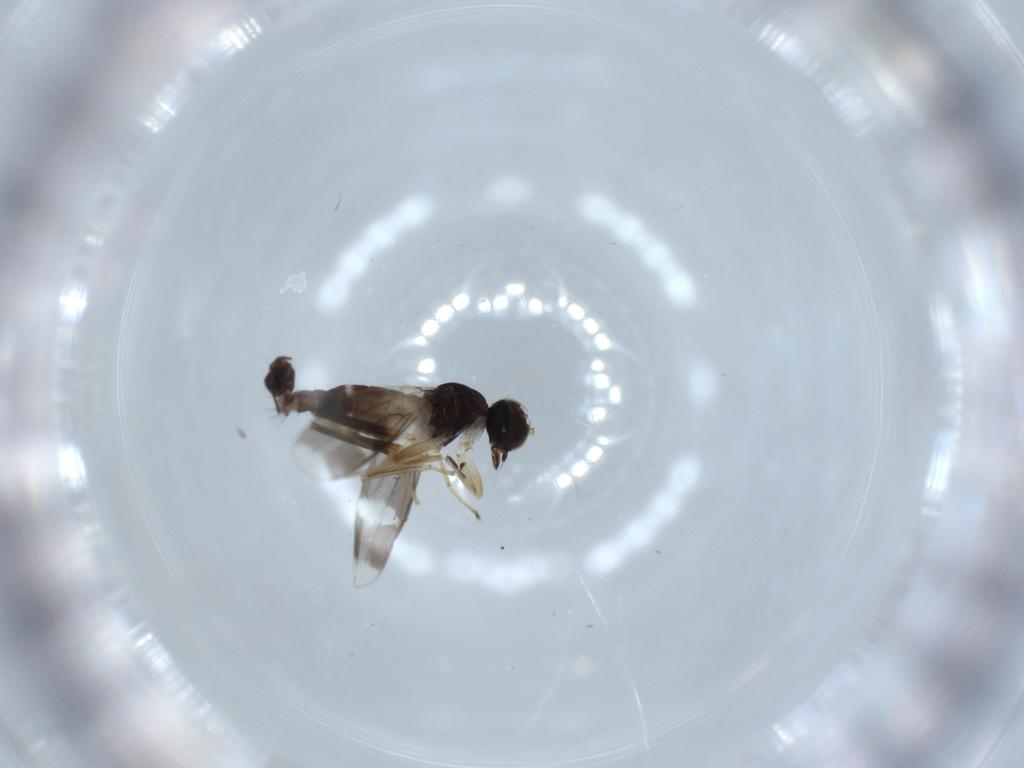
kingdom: Animalia
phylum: Arthropoda
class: Insecta
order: Diptera
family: Hybotidae
